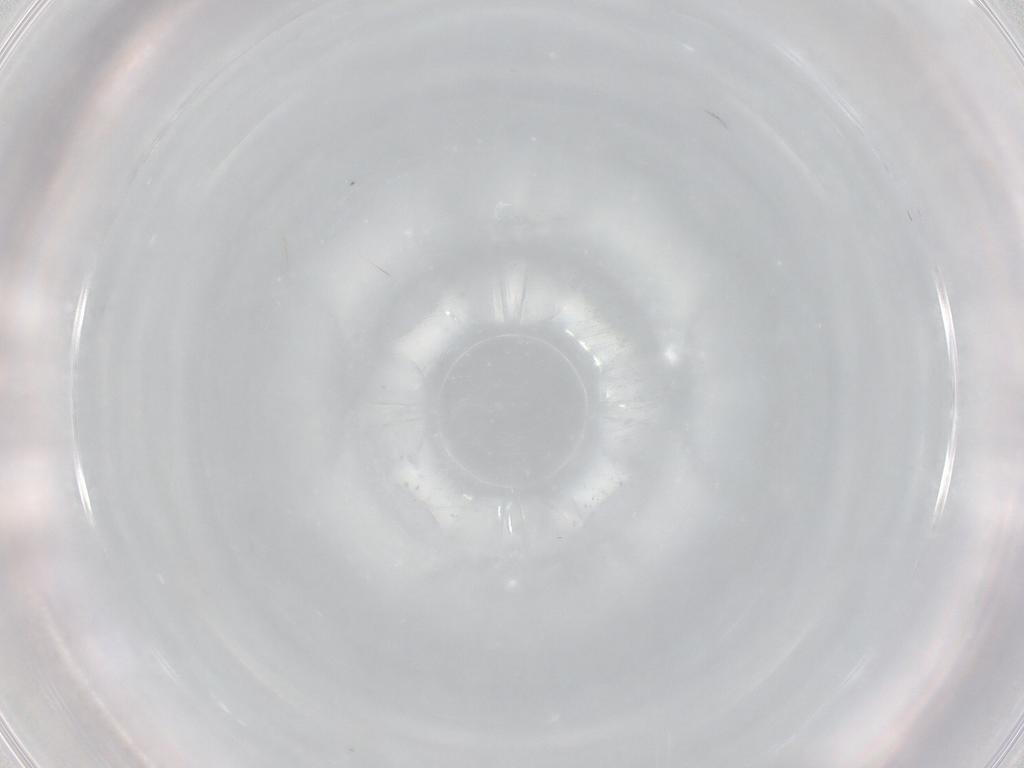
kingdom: Animalia
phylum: Arthropoda
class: Arachnida
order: Mesostigmata
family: Phytoseiidae
